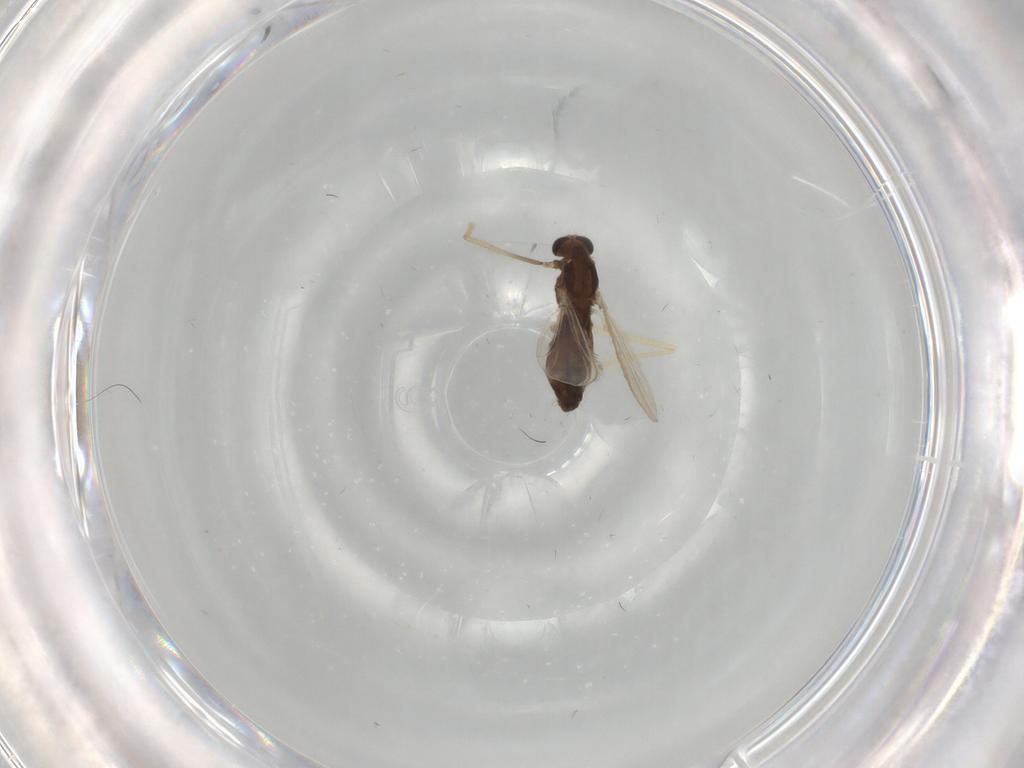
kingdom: Animalia
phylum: Arthropoda
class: Insecta
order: Diptera
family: Chironomidae
